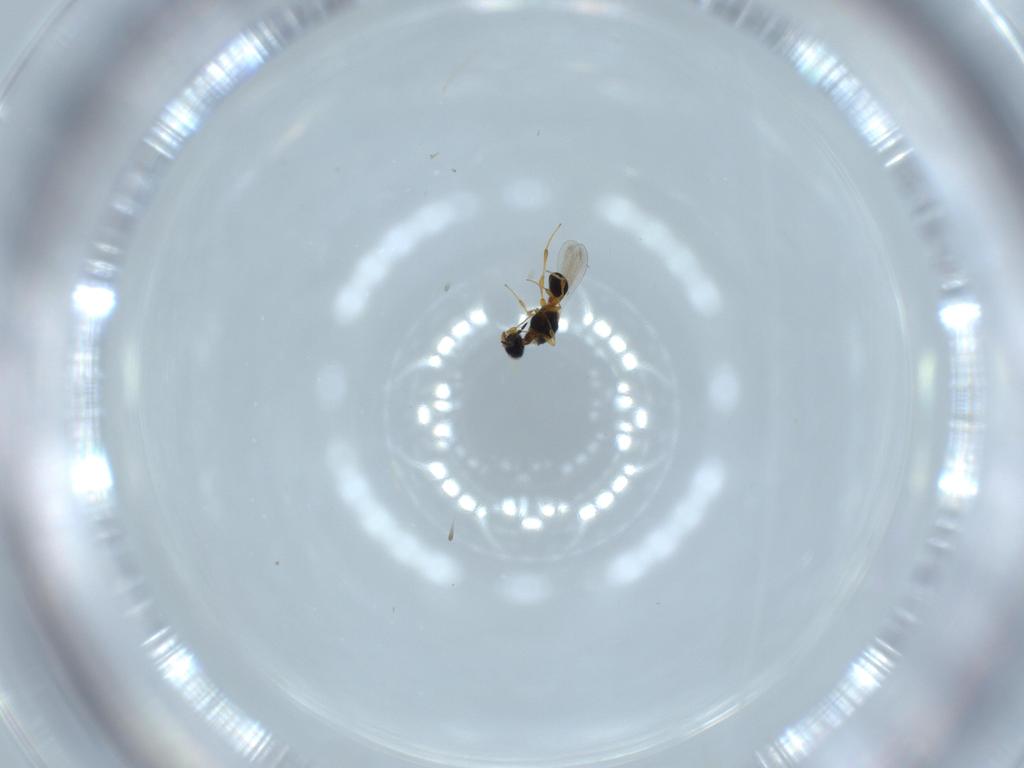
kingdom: Animalia
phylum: Arthropoda
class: Insecta
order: Hymenoptera
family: Platygastridae
